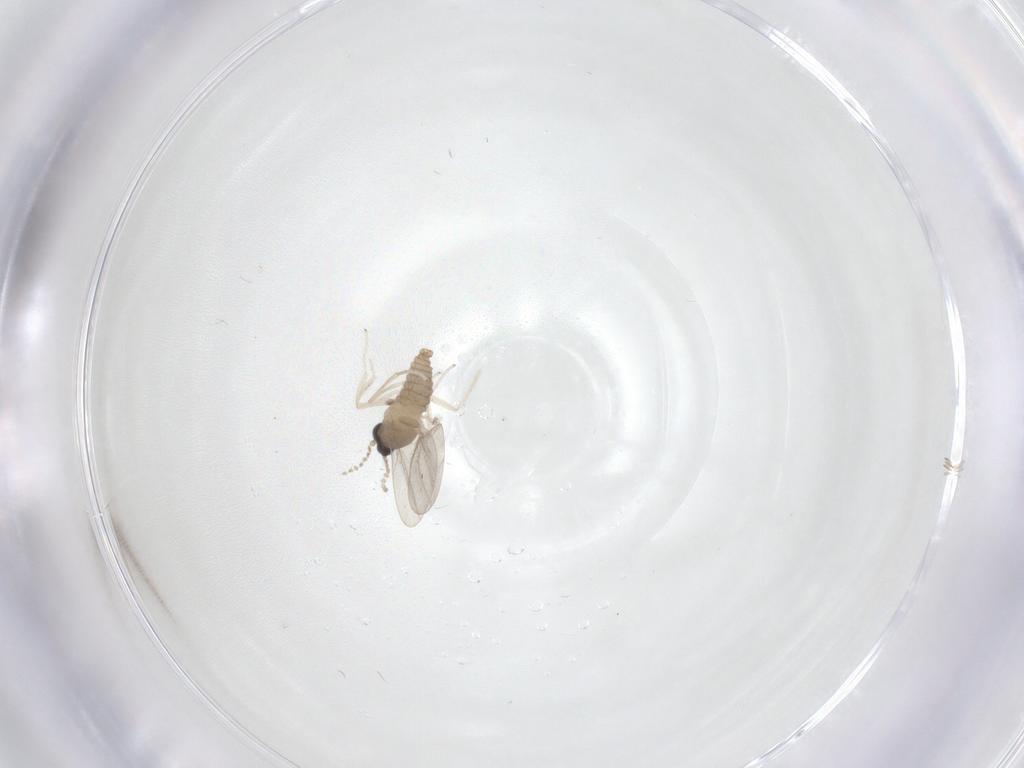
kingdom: Animalia
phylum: Arthropoda
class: Insecta
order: Diptera
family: Cecidomyiidae
